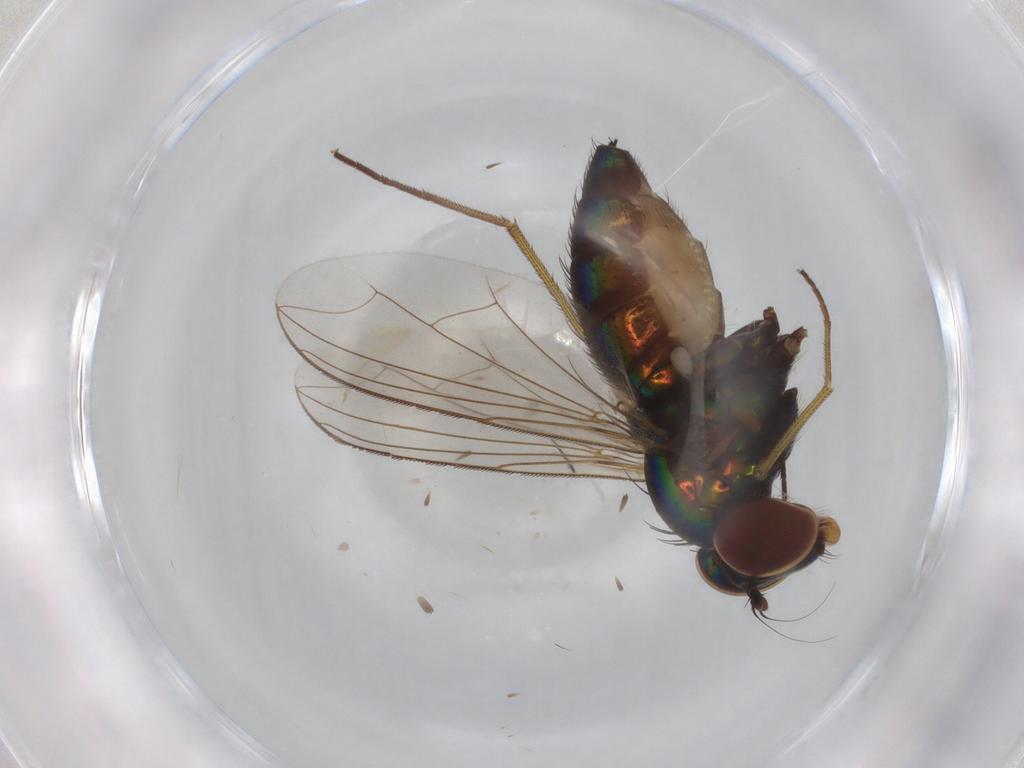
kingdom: Animalia
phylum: Arthropoda
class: Insecta
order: Diptera
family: Dolichopodidae
